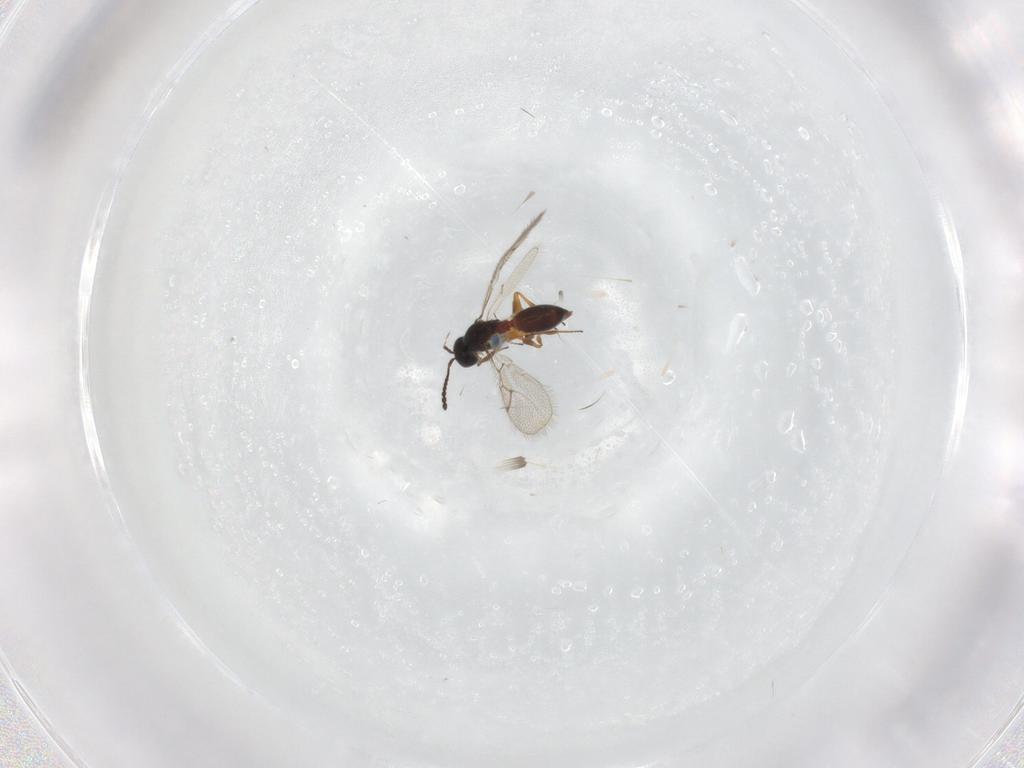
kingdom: Animalia
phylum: Arthropoda
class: Insecta
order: Hymenoptera
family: Figitidae
